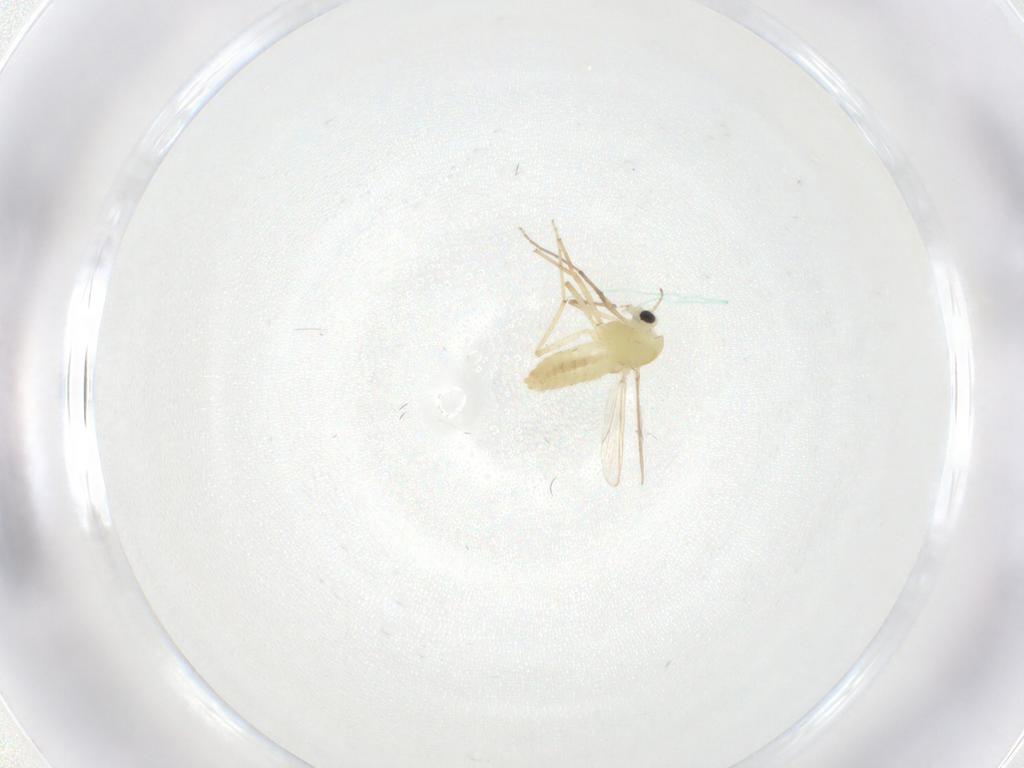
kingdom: Animalia
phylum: Arthropoda
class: Insecta
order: Diptera
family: Chironomidae
